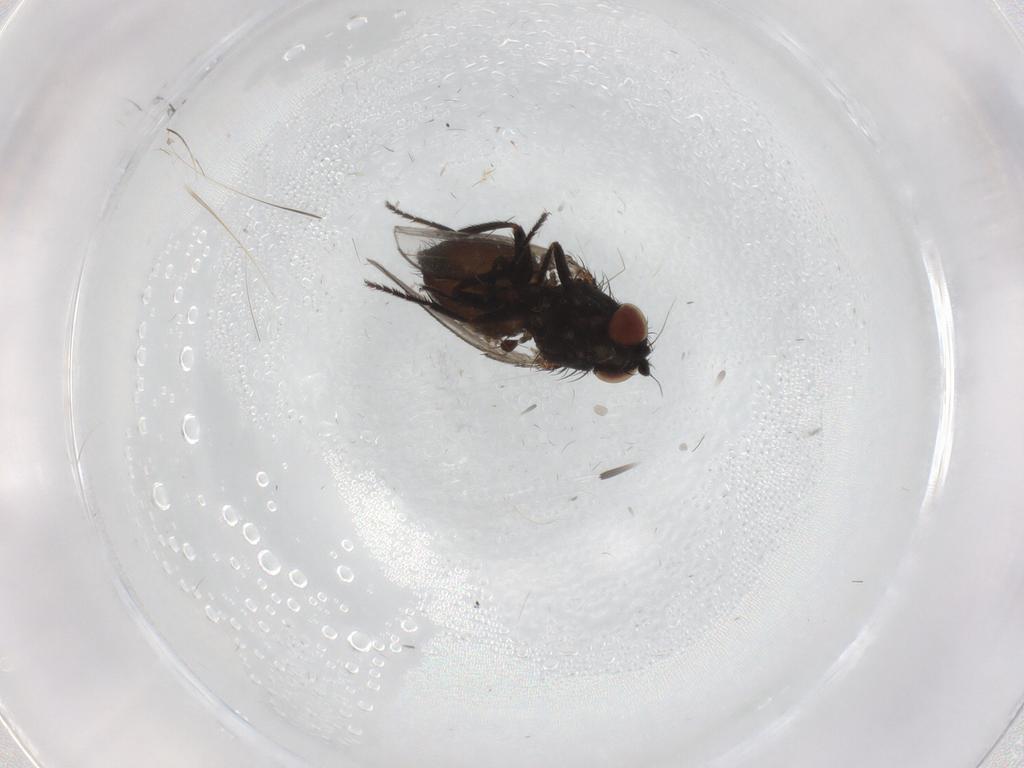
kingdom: Animalia
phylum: Arthropoda
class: Insecta
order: Diptera
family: Milichiidae
